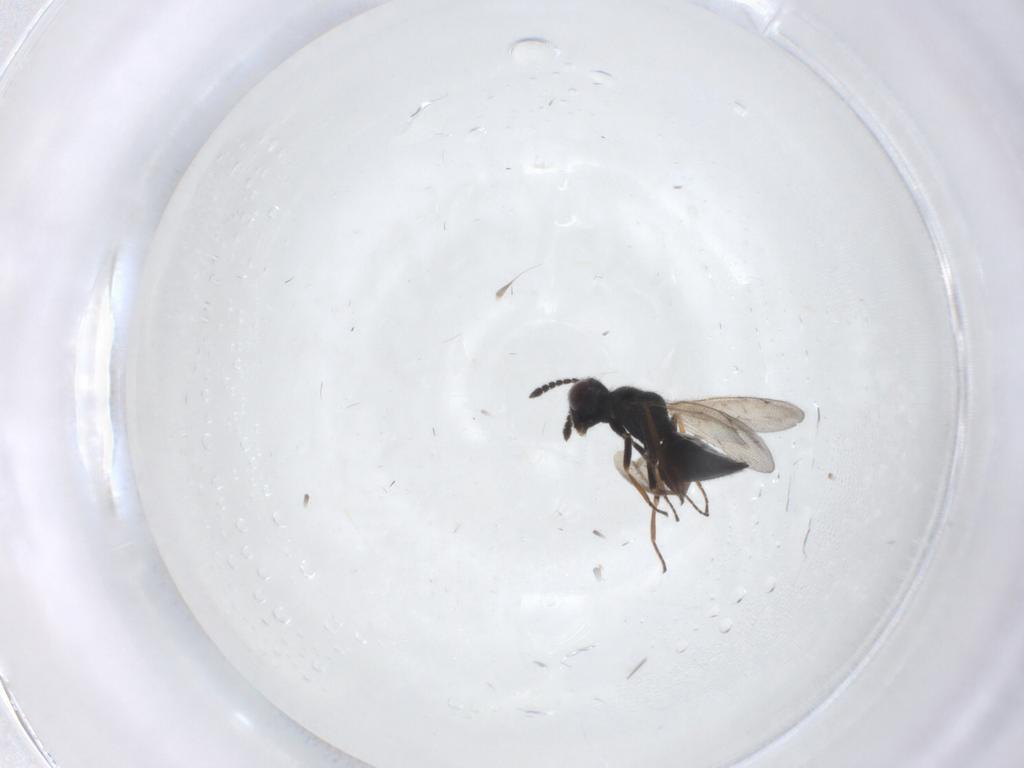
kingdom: Animalia
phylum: Arthropoda
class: Insecta
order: Hymenoptera
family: Eulophidae
